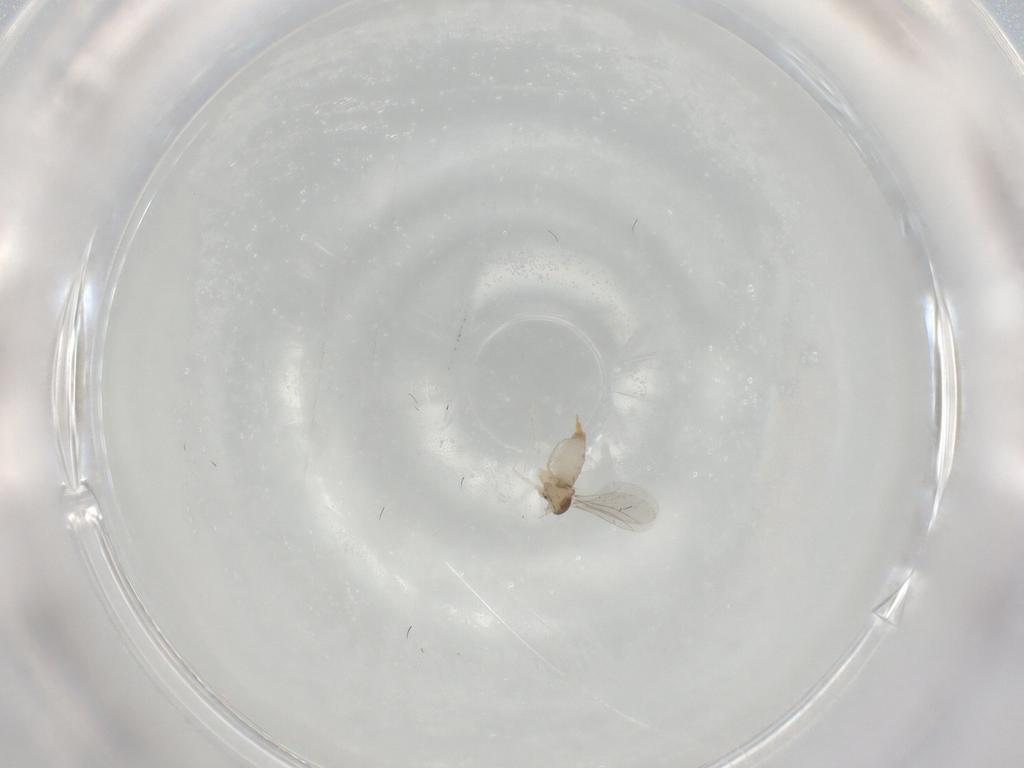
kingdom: Animalia
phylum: Arthropoda
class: Insecta
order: Diptera
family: Chironomidae
